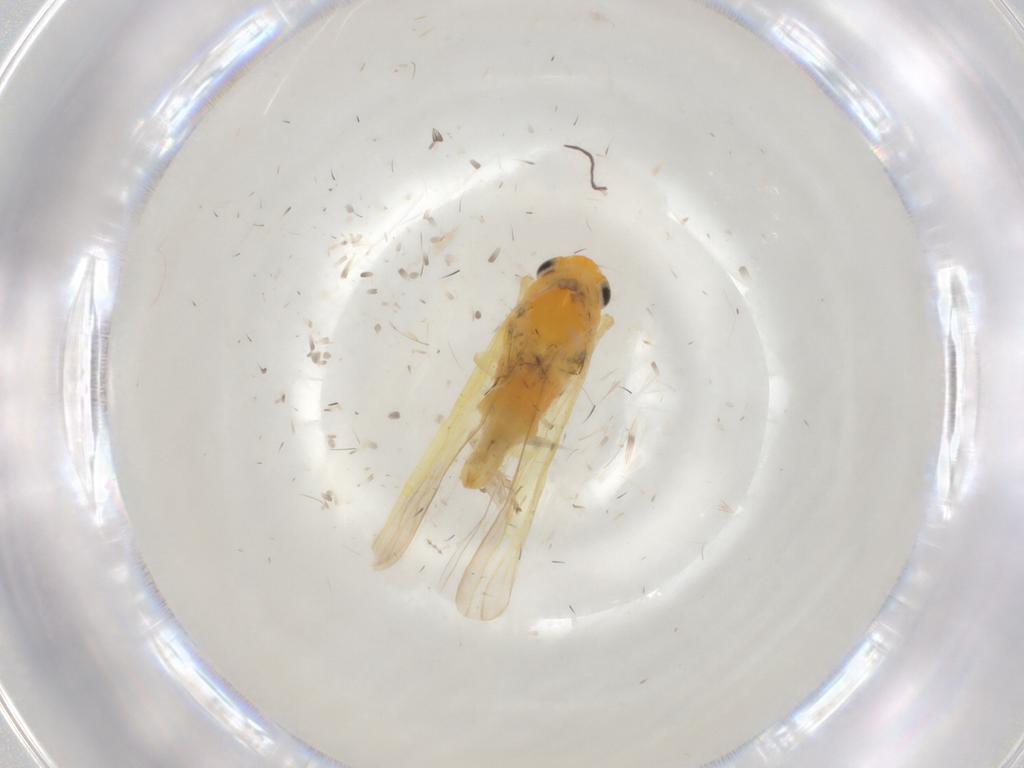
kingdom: Animalia
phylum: Arthropoda
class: Insecta
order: Hemiptera
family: Cicadellidae
